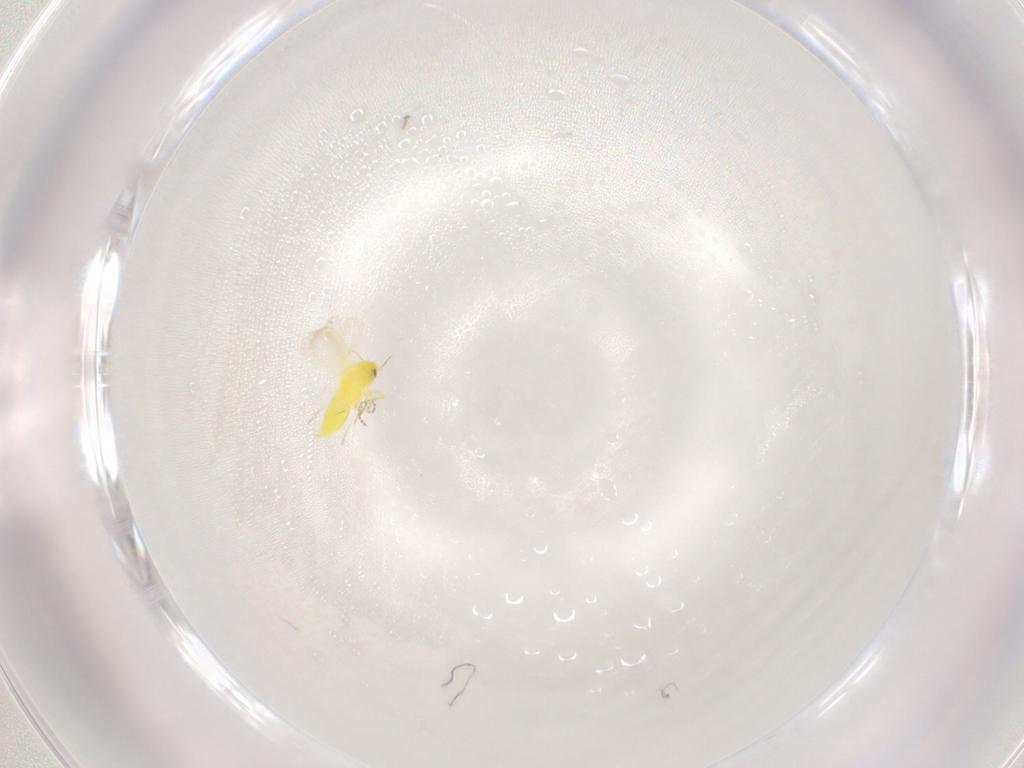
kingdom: Animalia
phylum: Arthropoda
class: Insecta
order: Hemiptera
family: Aleyrodidae
